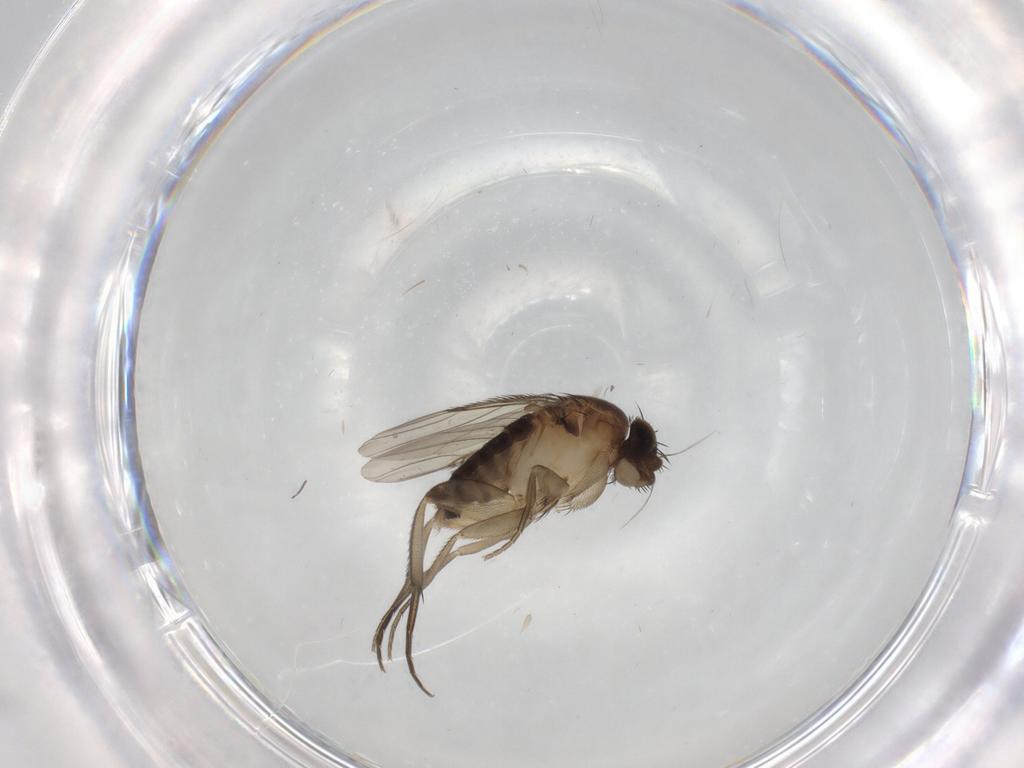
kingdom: Animalia
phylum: Arthropoda
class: Insecta
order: Diptera
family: Phoridae
